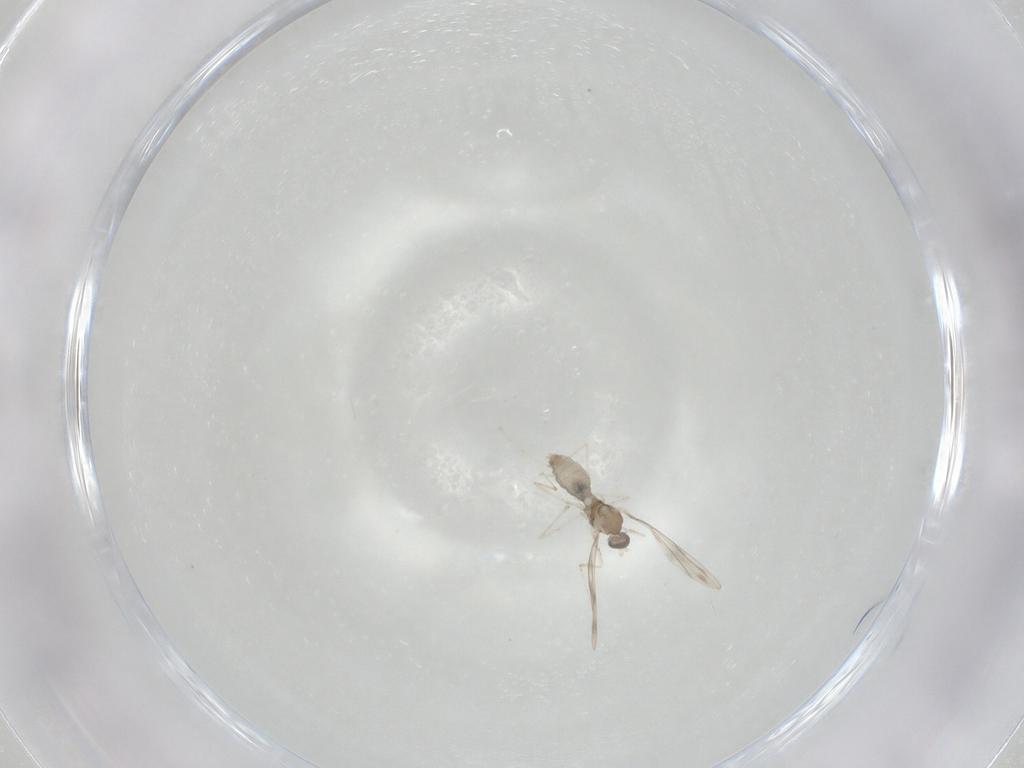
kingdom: Animalia
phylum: Arthropoda
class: Insecta
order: Diptera
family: Cecidomyiidae
